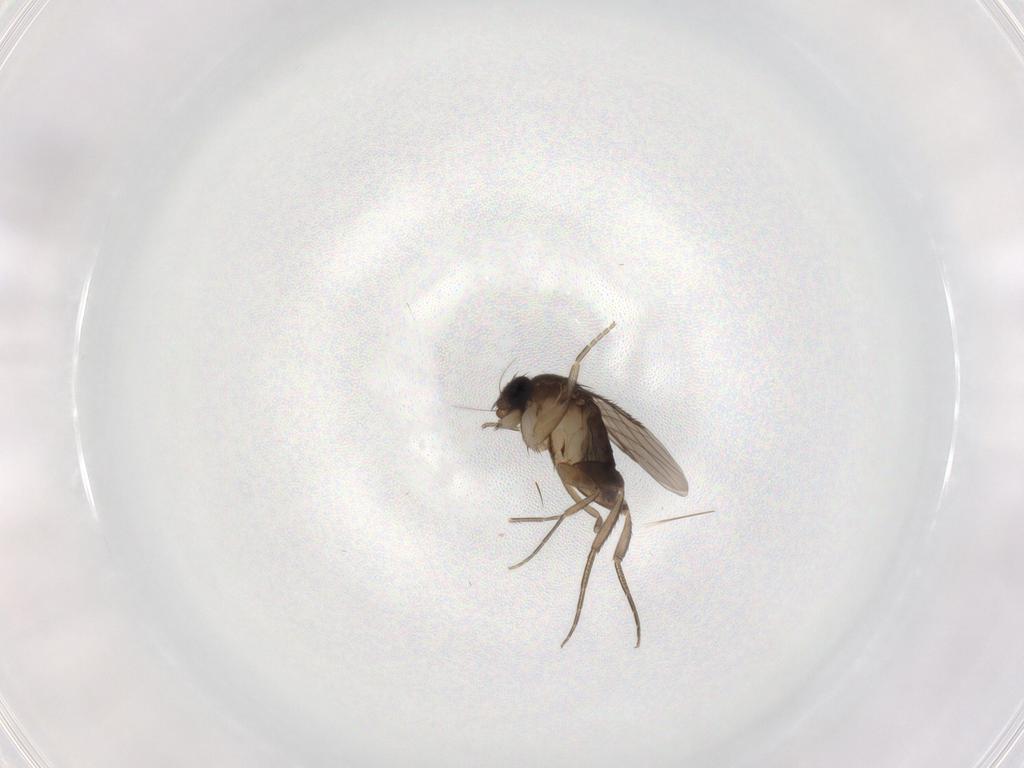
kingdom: Animalia
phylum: Arthropoda
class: Insecta
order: Diptera
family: Phoridae
